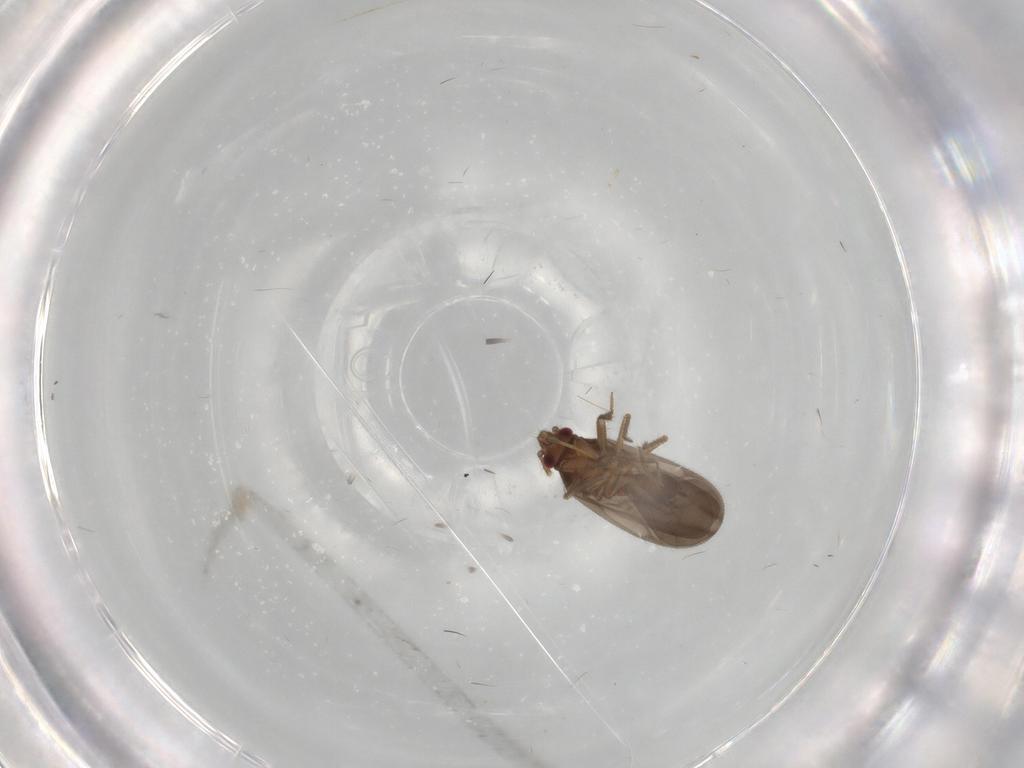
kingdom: Animalia
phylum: Arthropoda
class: Insecta
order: Hemiptera
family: Ceratocombidae
